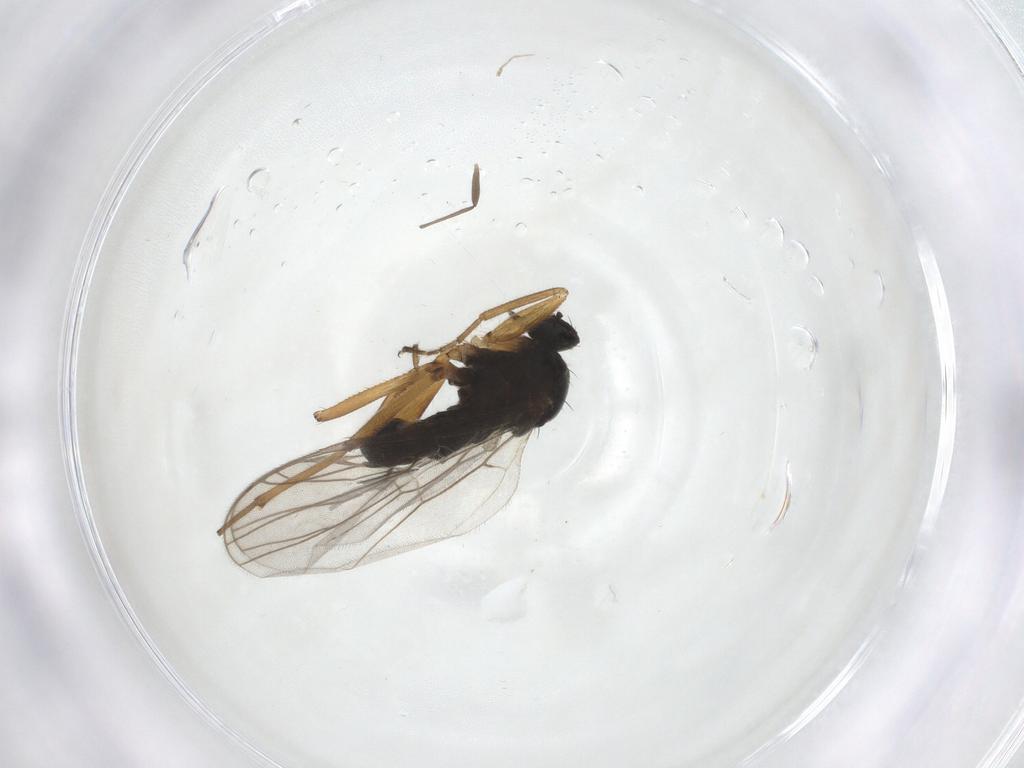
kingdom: Animalia
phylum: Arthropoda
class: Insecta
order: Diptera
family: Hybotidae
